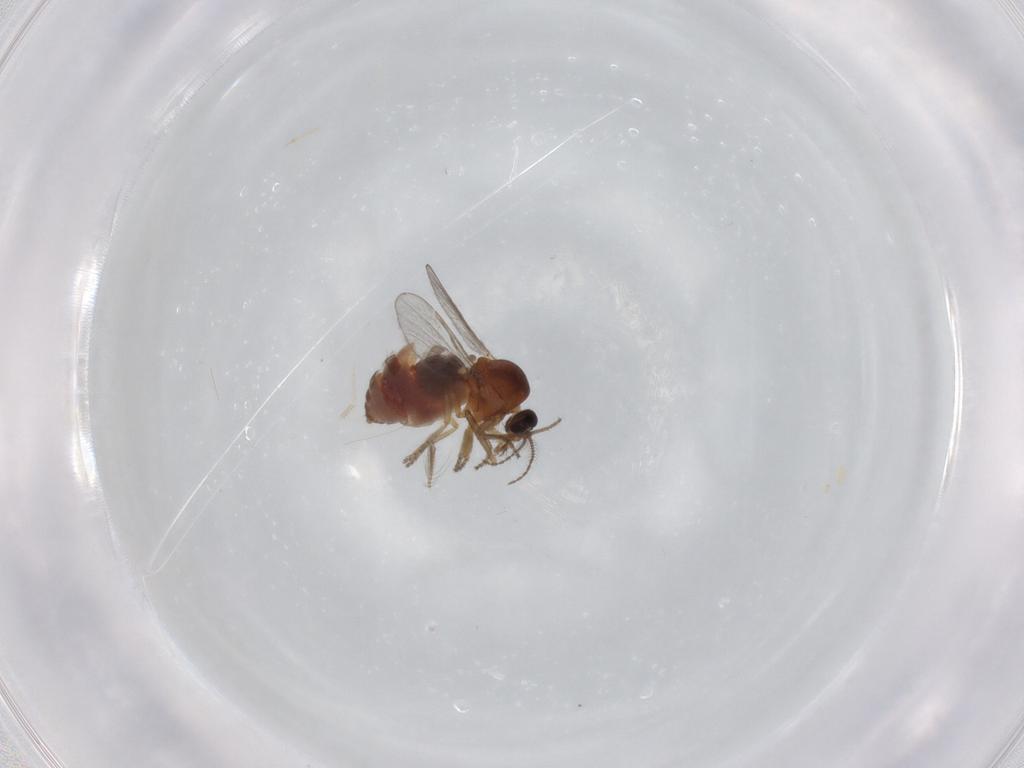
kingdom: Animalia
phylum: Arthropoda
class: Insecta
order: Diptera
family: Ceratopogonidae
